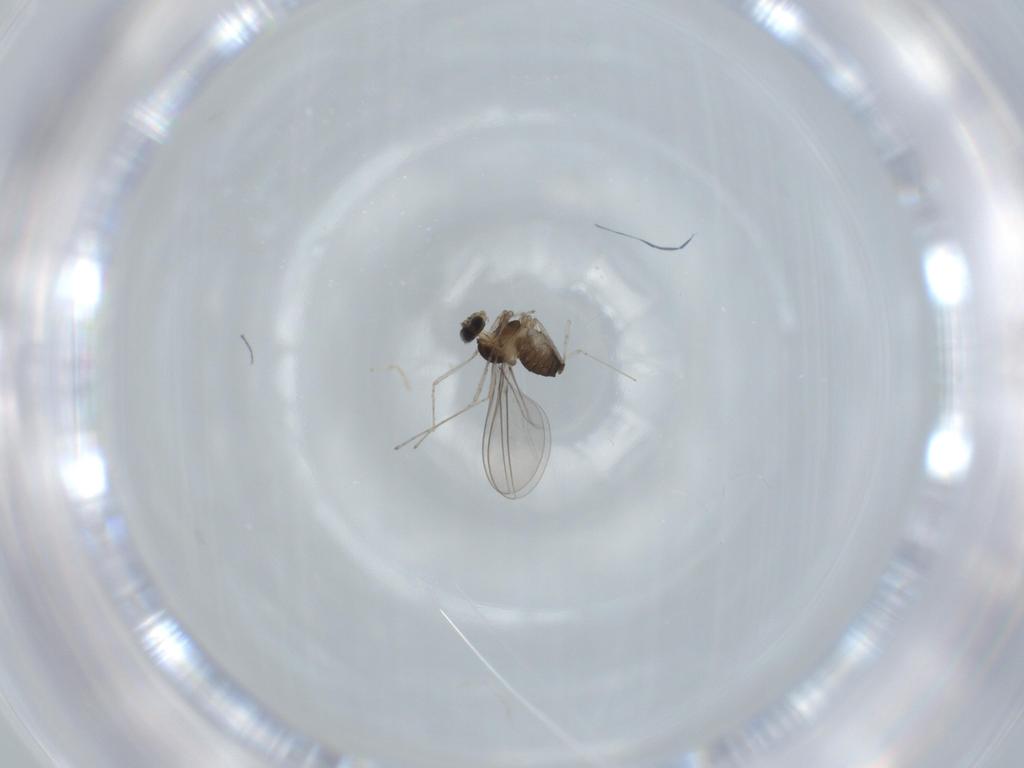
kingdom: Animalia
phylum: Arthropoda
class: Insecta
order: Diptera
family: Cecidomyiidae
